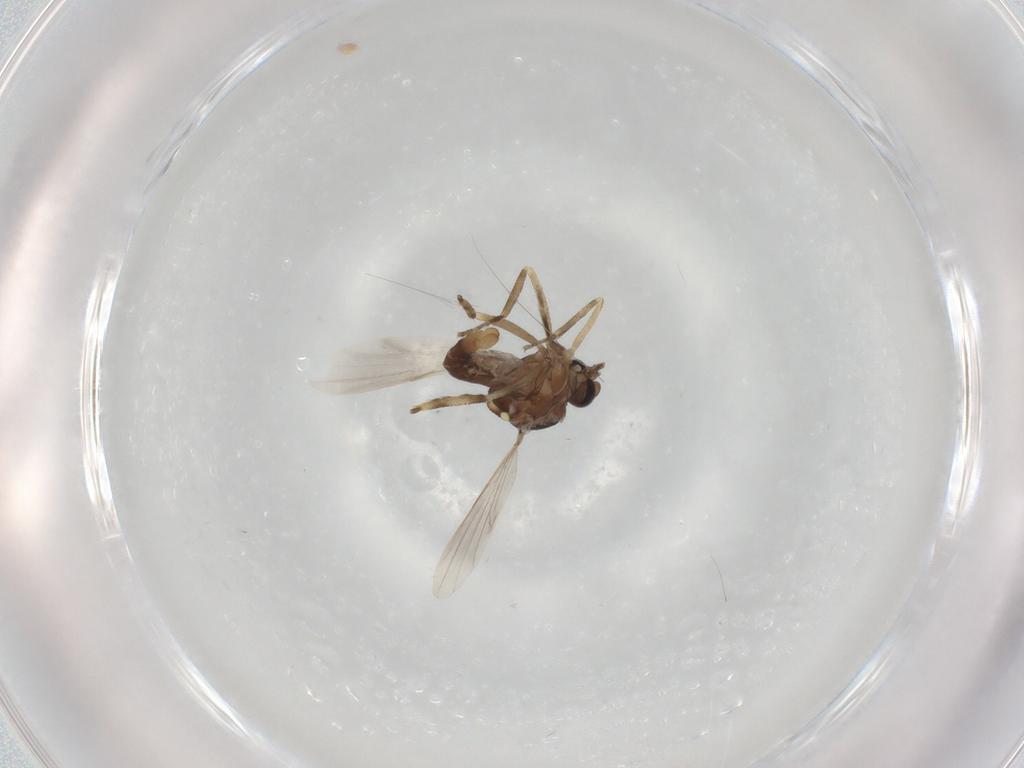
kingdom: Animalia
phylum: Arthropoda
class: Insecta
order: Diptera
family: Ceratopogonidae
